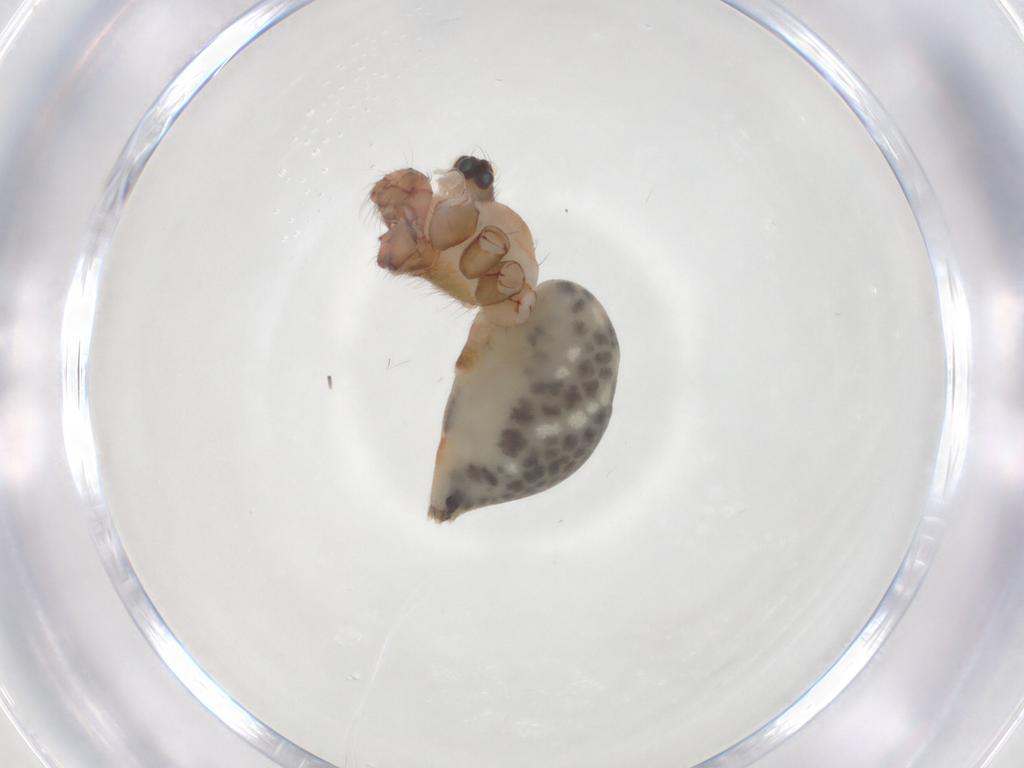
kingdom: Animalia
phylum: Arthropoda
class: Arachnida
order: Araneae
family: Pholcidae
